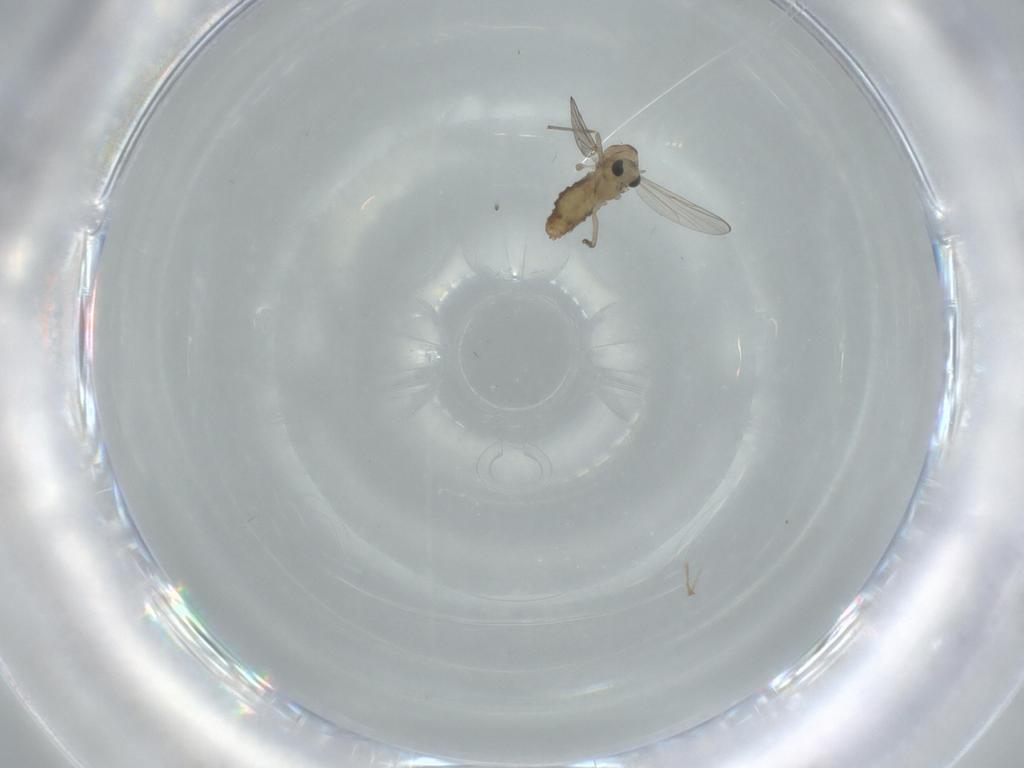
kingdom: Animalia
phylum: Arthropoda
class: Insecta
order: Diptera
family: Chironomidae
